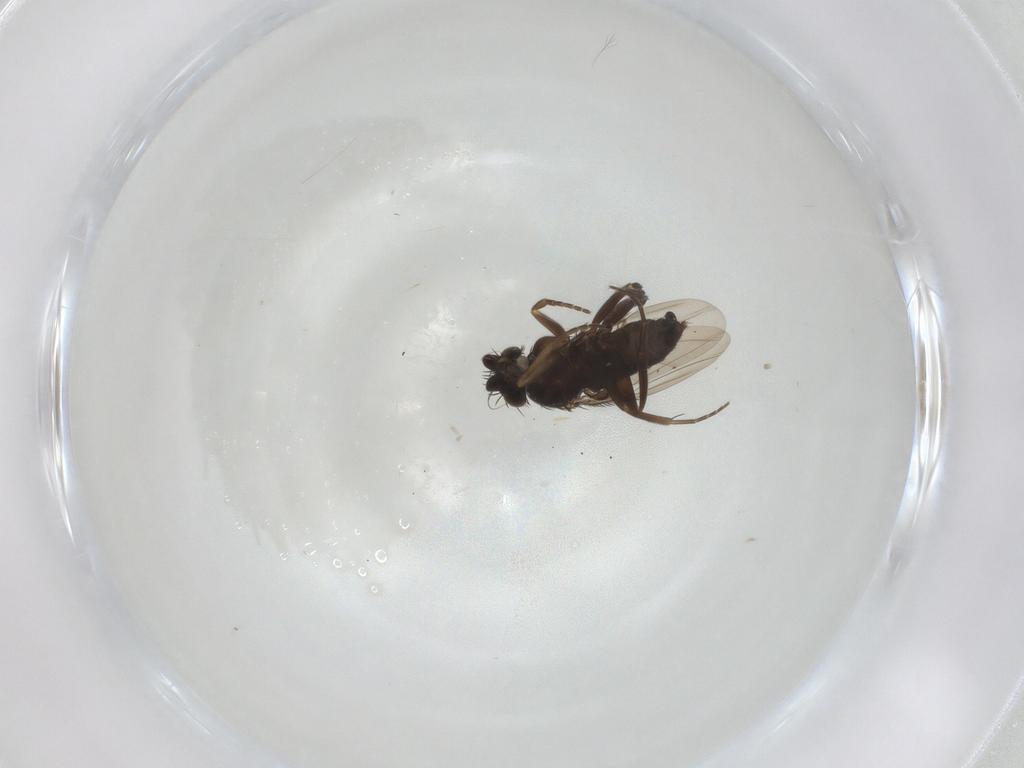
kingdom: Animalia
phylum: Arthropoda
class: Insecta
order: Diptera
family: Phoridae
